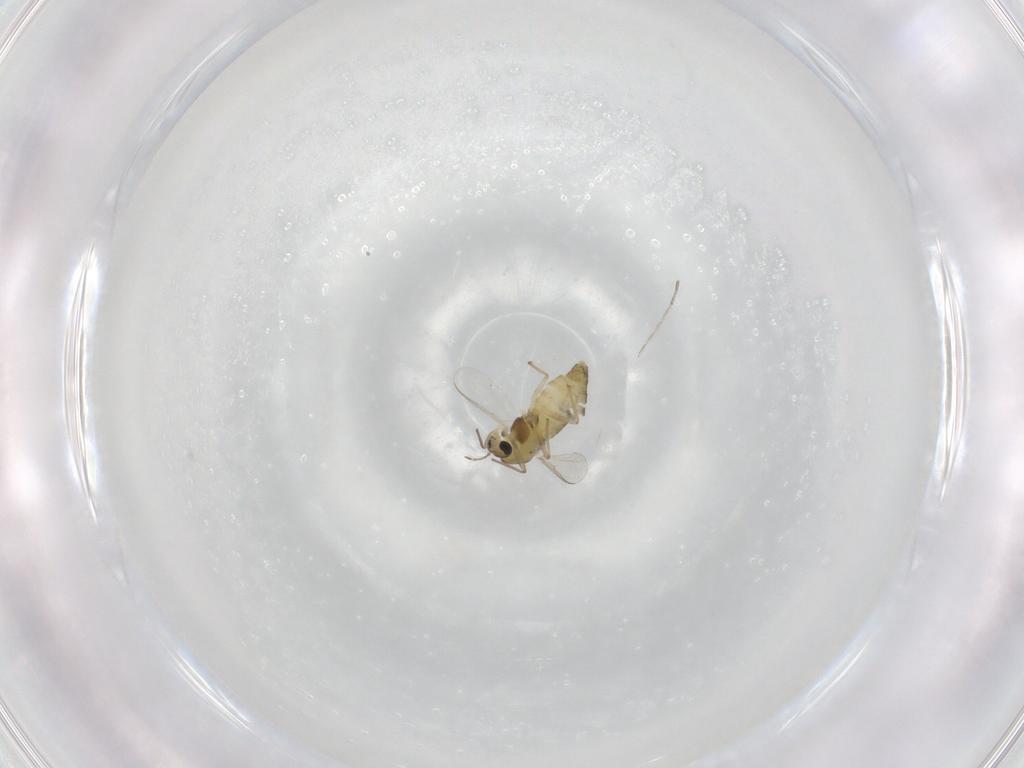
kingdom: Animalia
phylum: Arthropoda
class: Insecta
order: Diptera
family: Chironomidae
